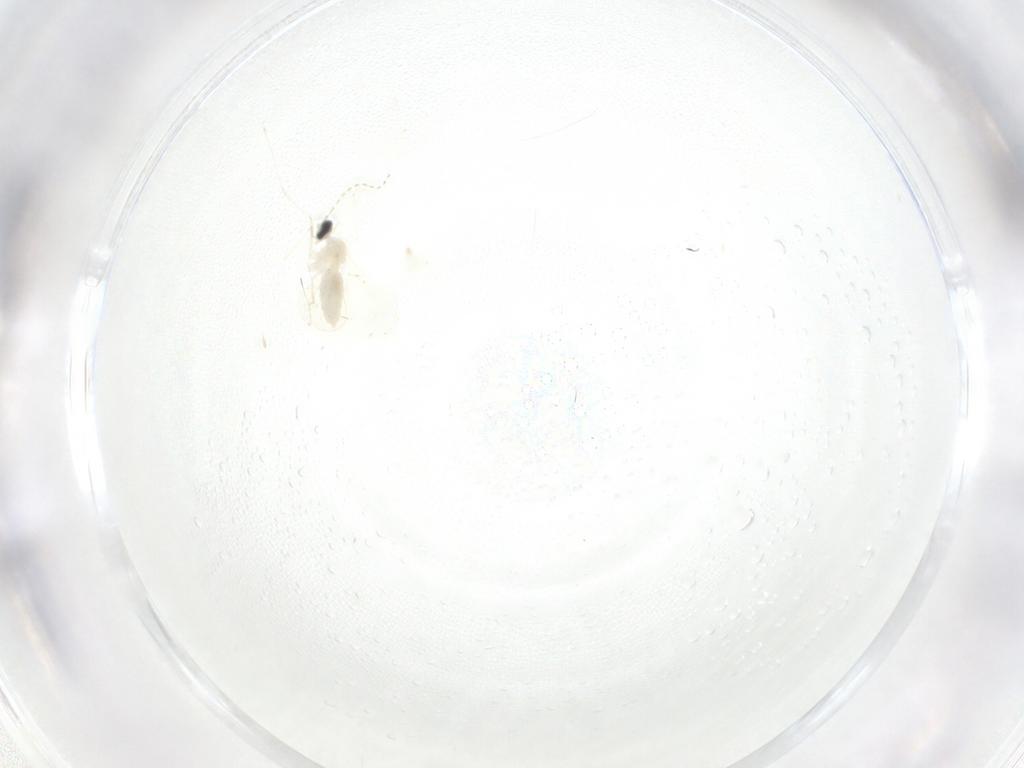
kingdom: Animalia
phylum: Arthropoda
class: Insecta
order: Diptera
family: Cecidomyiidae
